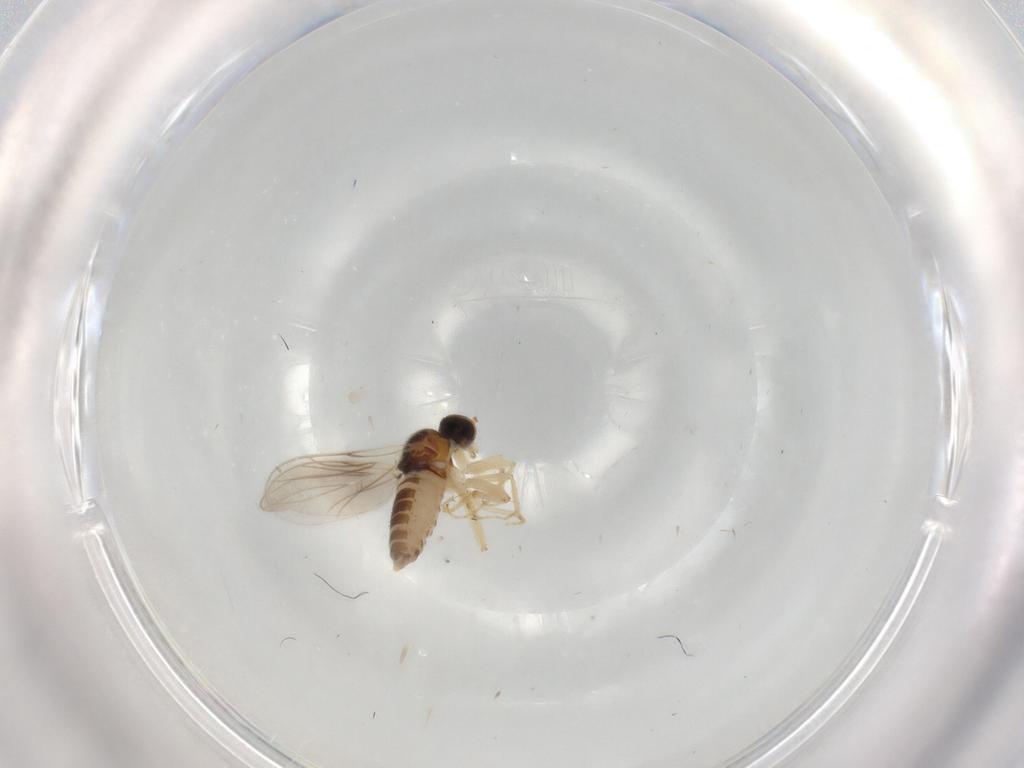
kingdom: Animalia
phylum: Arthropoda
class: Insecta
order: Diptera
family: Hybotidae
